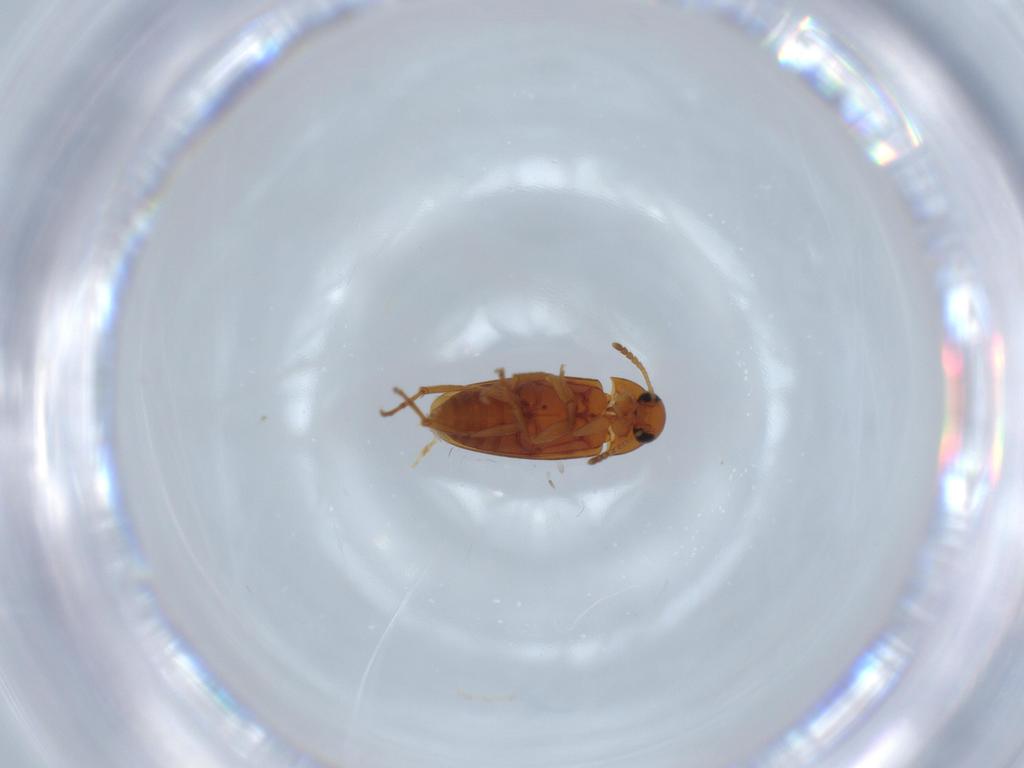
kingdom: Animalia
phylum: Arthropoda
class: Insecta
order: Coleoptera
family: Scraptiidae
